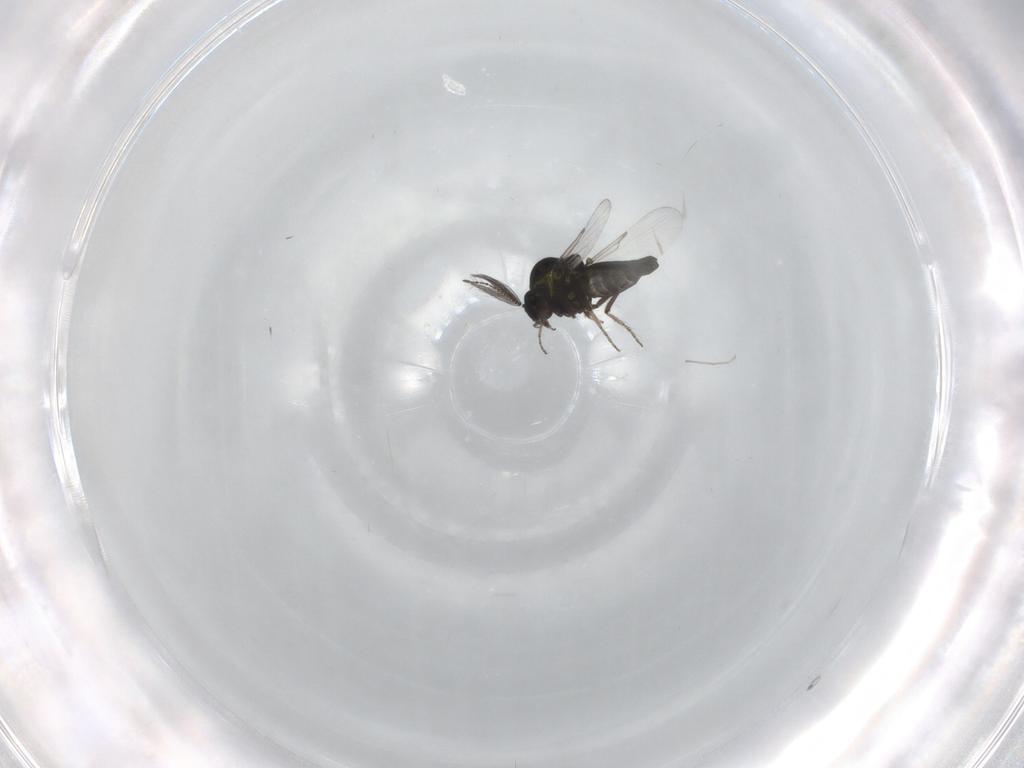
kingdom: Animalia
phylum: Arthropoda
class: Insecta
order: Diptera
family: Ceratopogonidae
